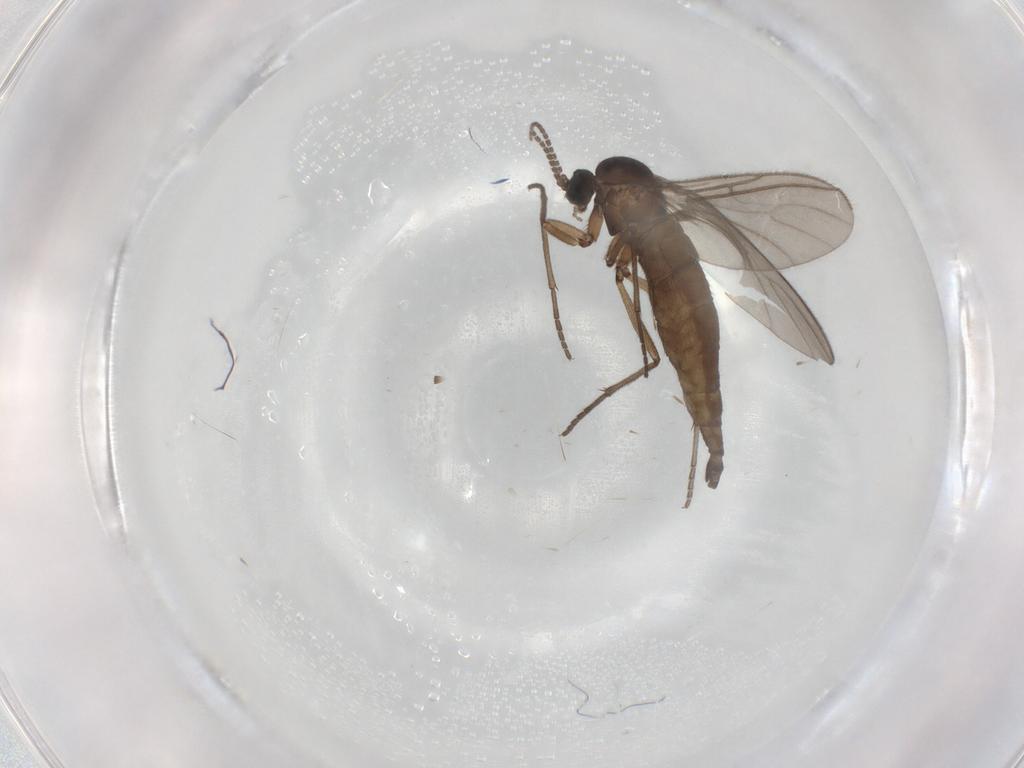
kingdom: Animalia
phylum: Arthropoda
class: Insecta
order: Diptera
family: Sciaridae
